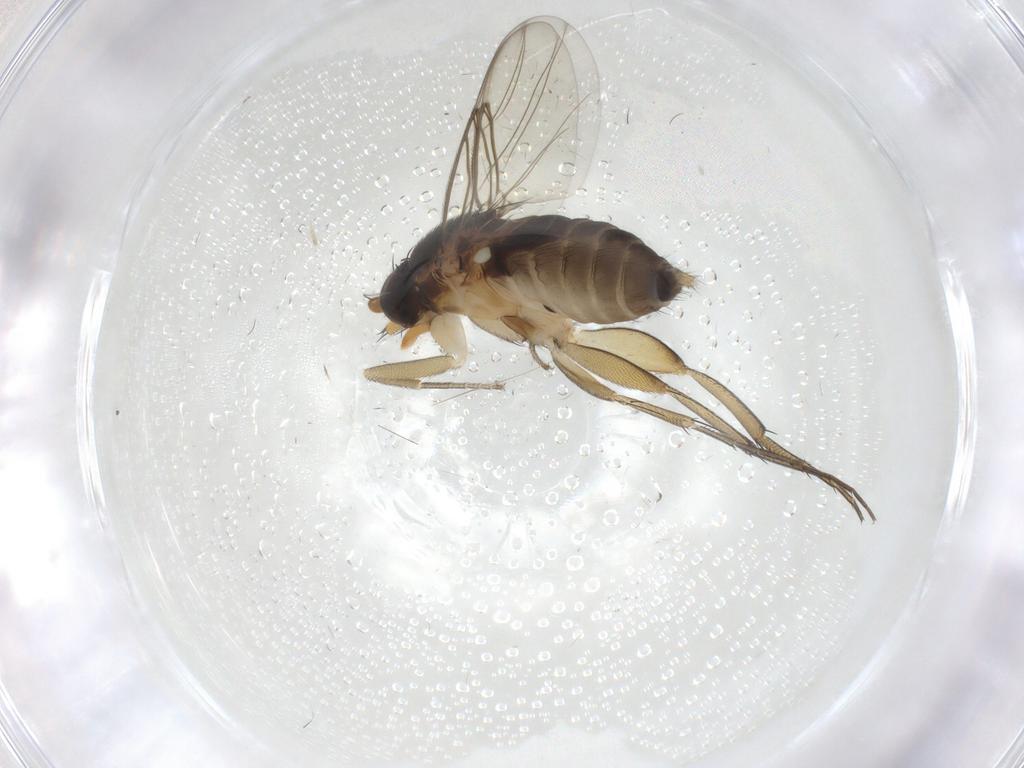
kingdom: Animalia
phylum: Arthropoda
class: Insecta
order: Diptera
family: Phoridae
